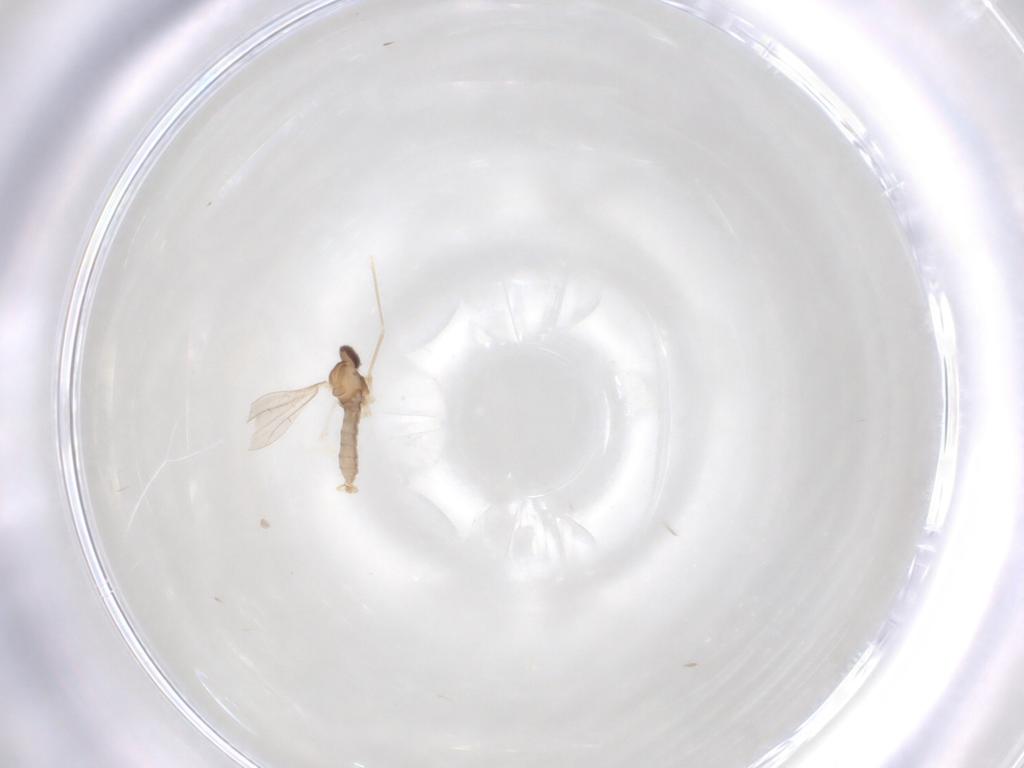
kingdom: Animalia
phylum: Arthropoda
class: Insecta
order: Diptera
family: Cecidomyiidae
